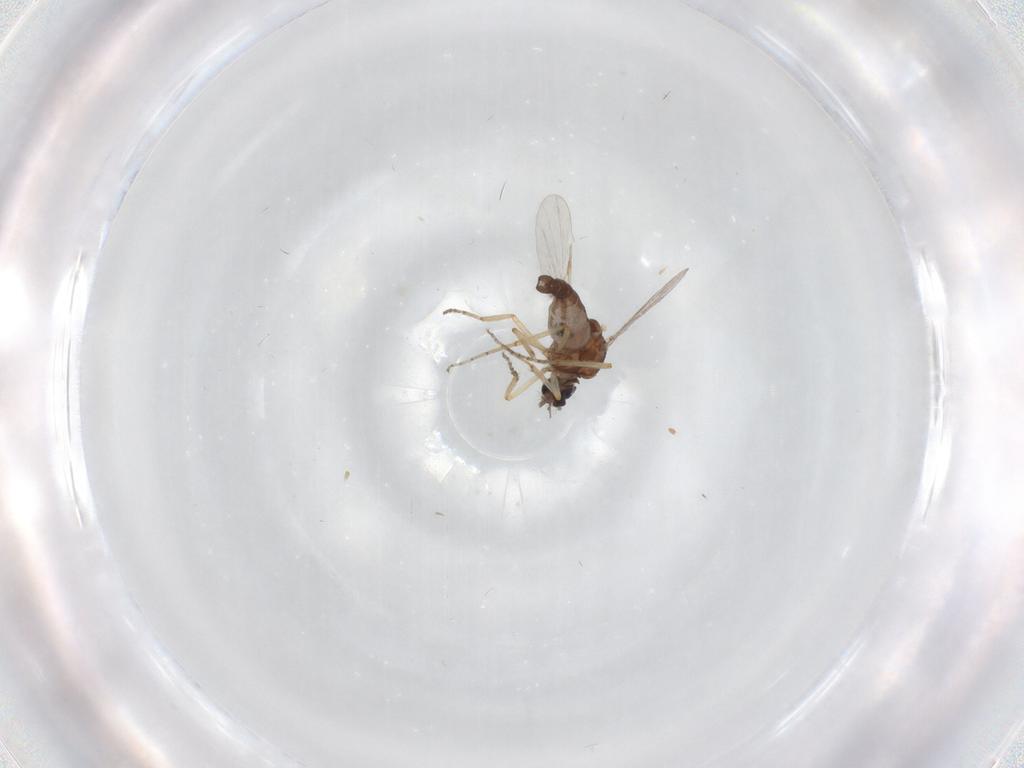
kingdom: Animalia
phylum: Arthropoda
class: Insecta
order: Diptera
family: Ceratopogonidae
